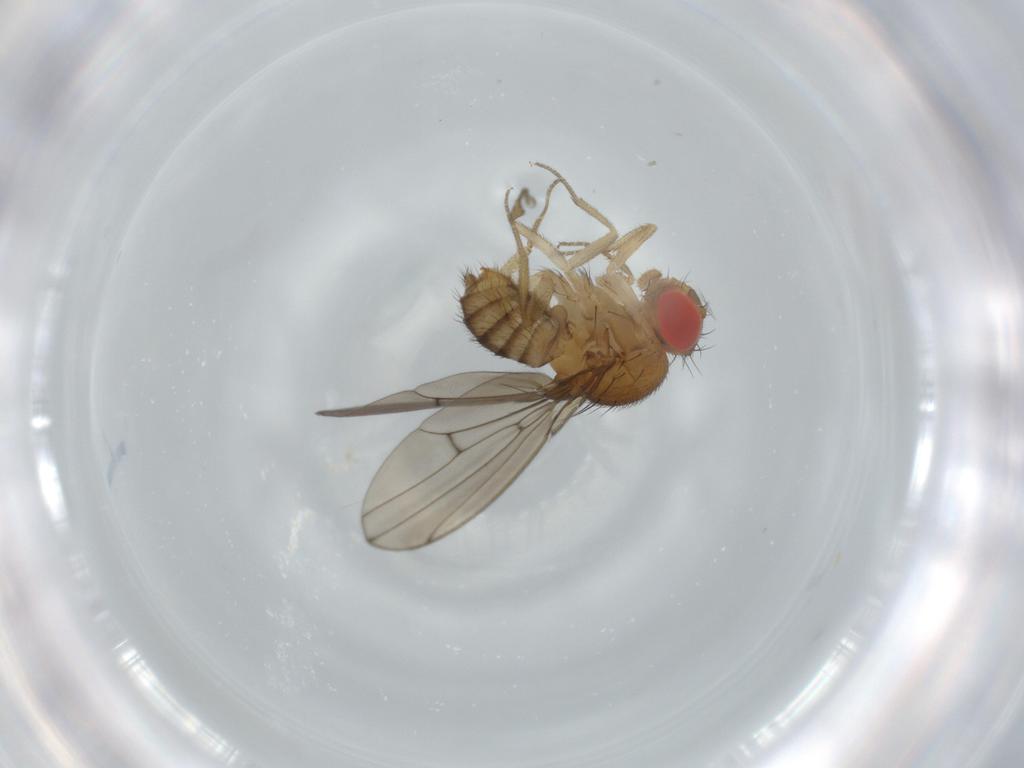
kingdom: Animalia
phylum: Arthropoda
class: Insecta
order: Diptera
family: Drosophilidae
